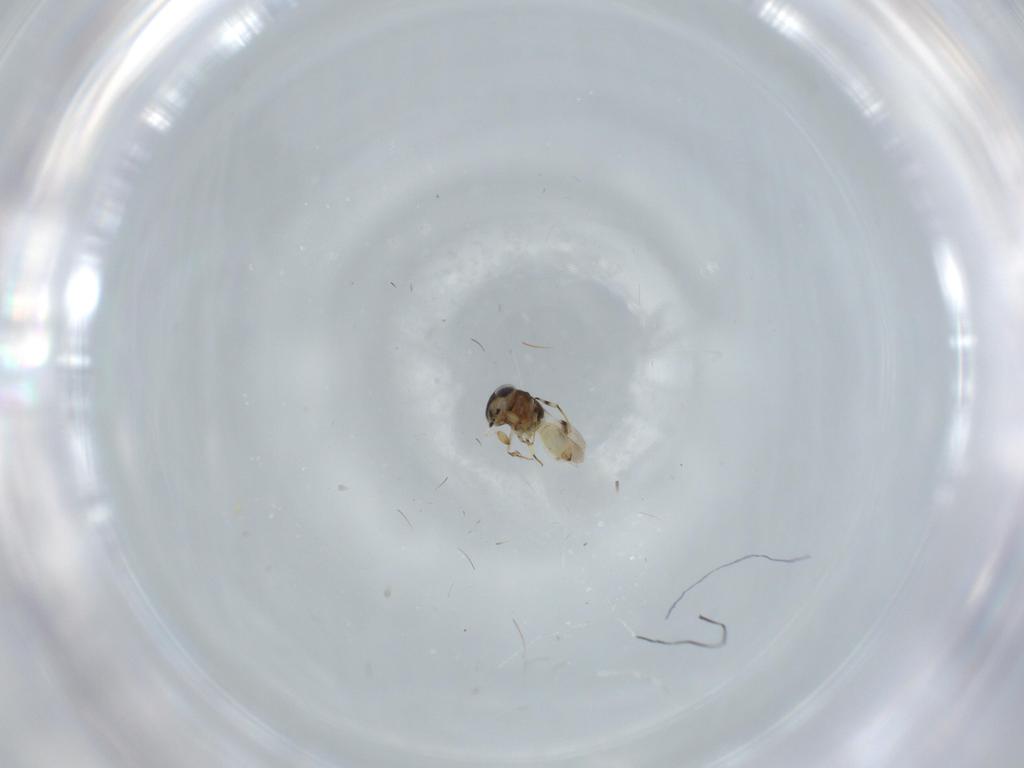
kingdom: Animalia
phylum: Arthropoda
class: Insecta
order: Hymenoptera
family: Scelionidae
